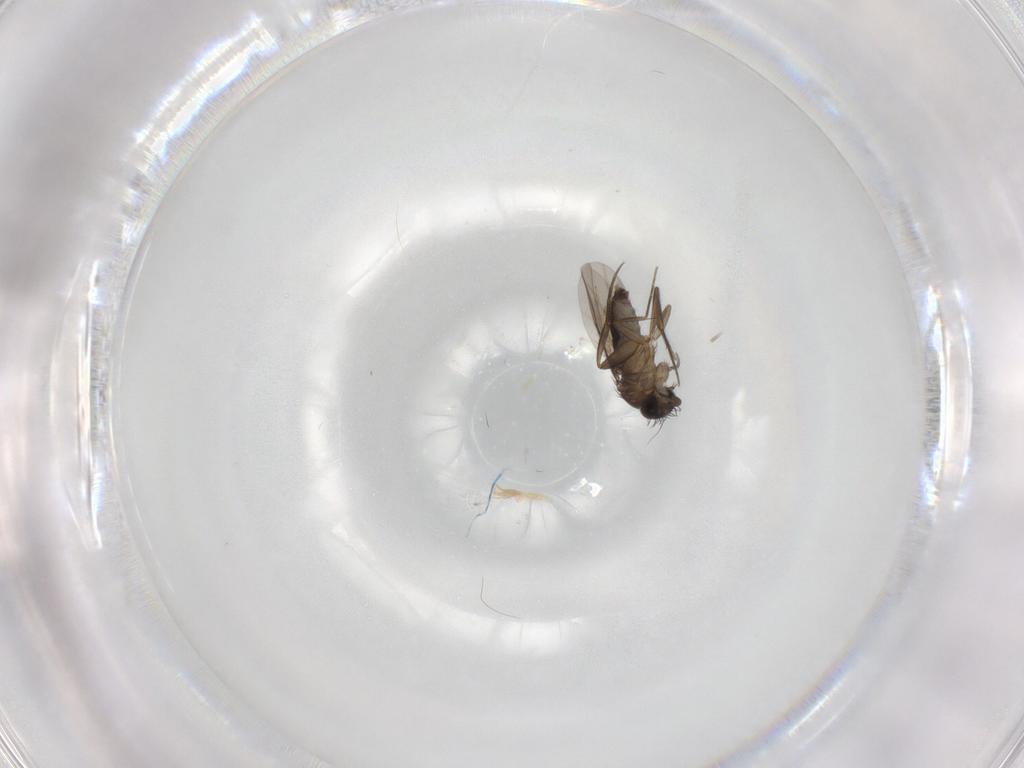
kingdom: Animalia
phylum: Arthropoda
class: Insecta
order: Diptera
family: Phoridae
